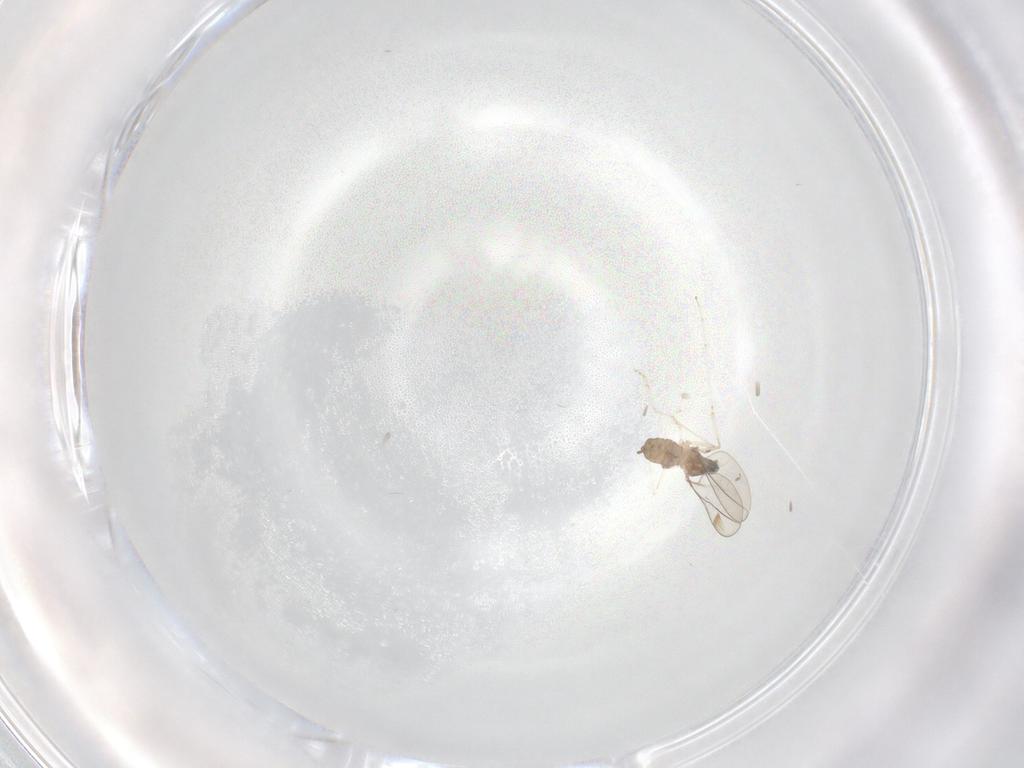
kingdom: Animalia
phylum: Arthropoda
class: Insecta
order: Diptera
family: Cecidomyiidae
